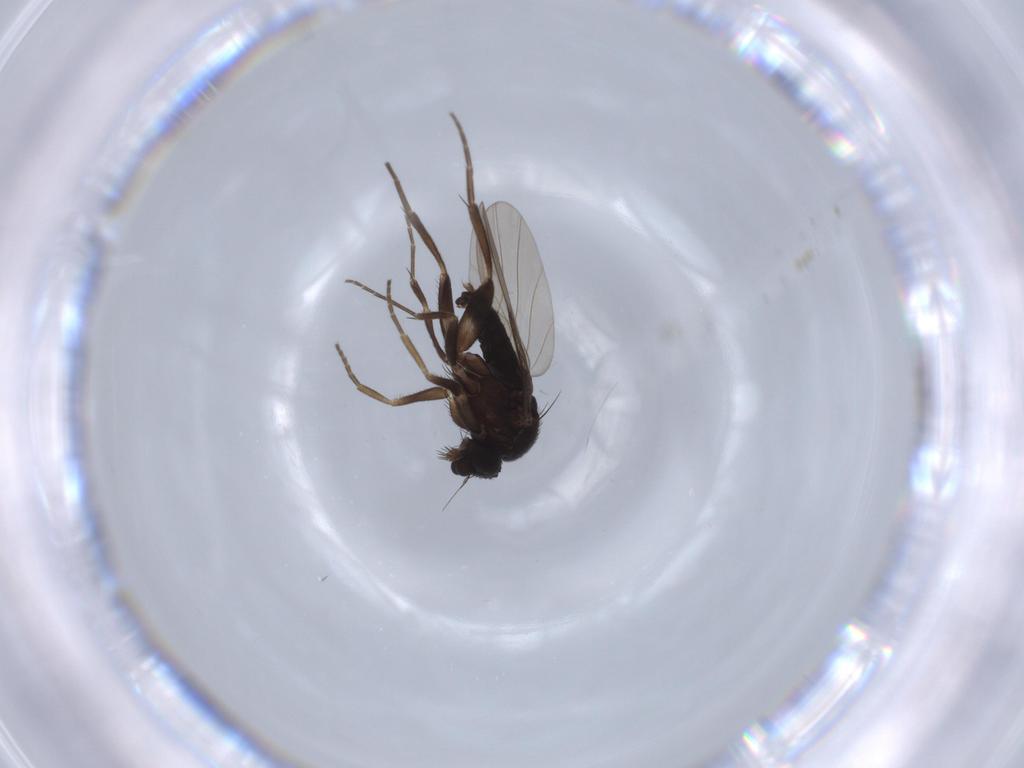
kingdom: Animalia
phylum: Arthropoda
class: Insecta
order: Diptera
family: Phoridae
